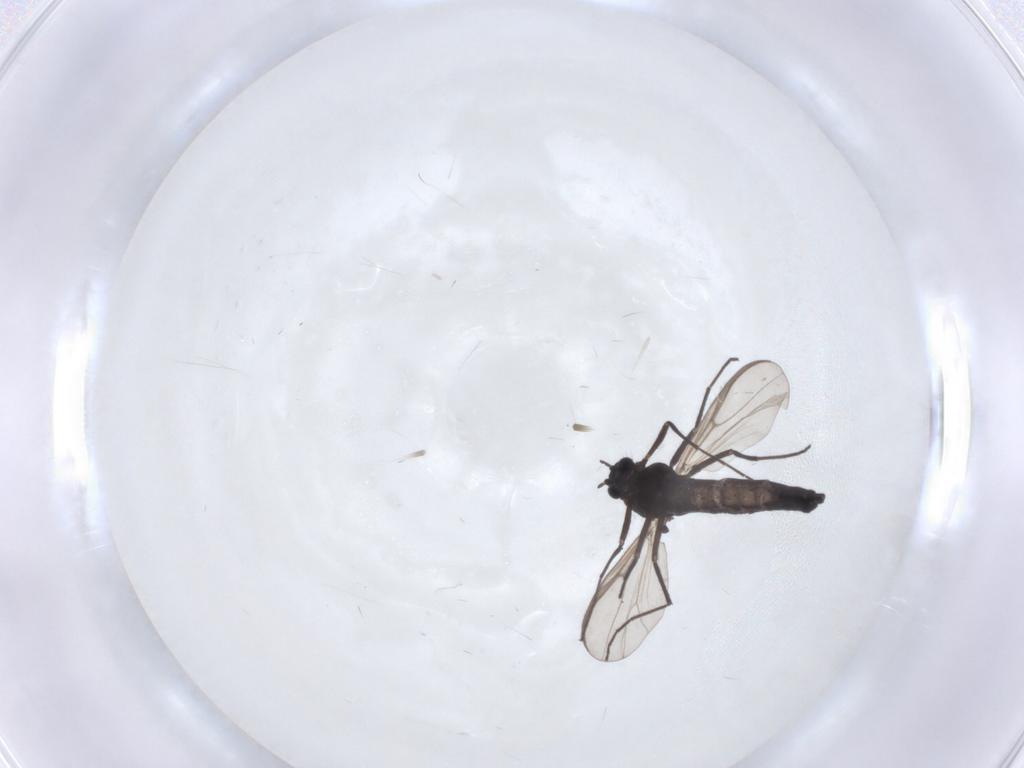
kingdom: Animalia
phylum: Arthropoda
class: Insecta
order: Diptera
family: Chironomidae
